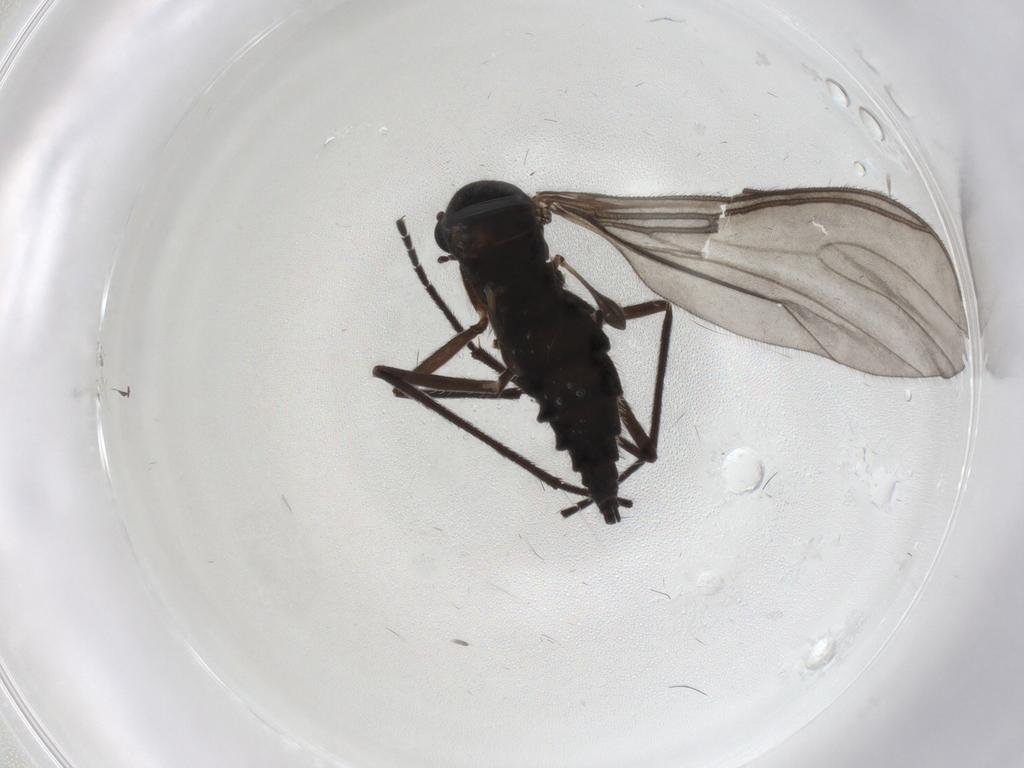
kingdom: Animalia
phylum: Arthropoda
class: Insecta
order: Diptera
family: Sciaridae
